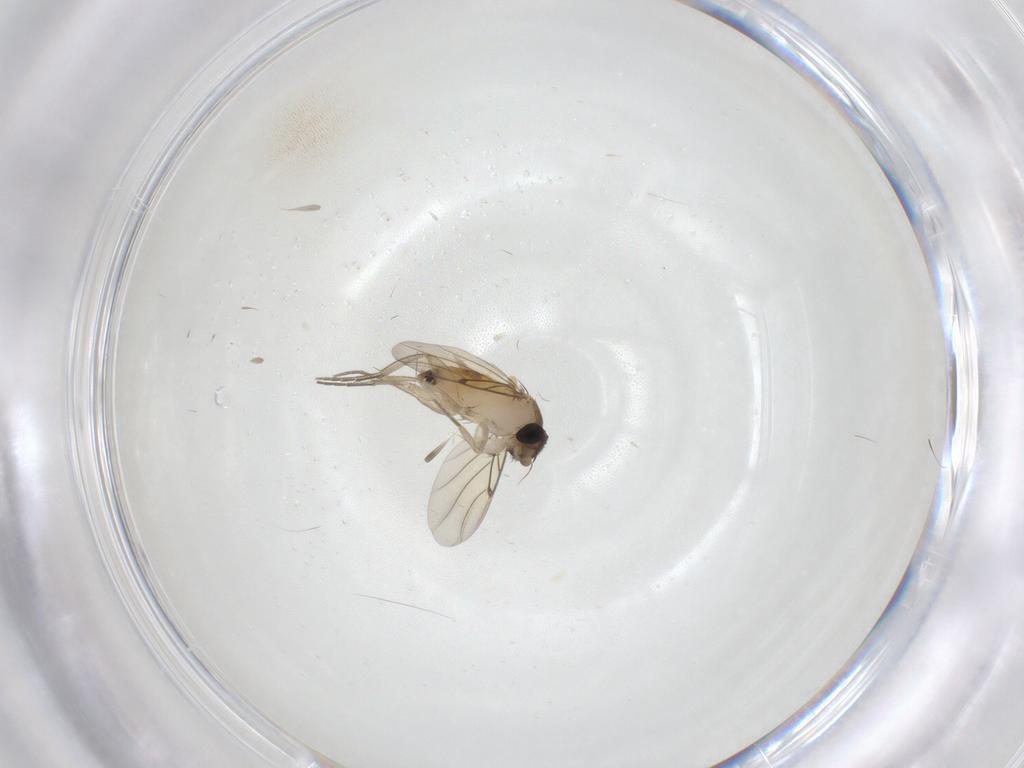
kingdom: Animalia
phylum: Arthropoda
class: Insecta
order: Diptera
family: Chironomidae
